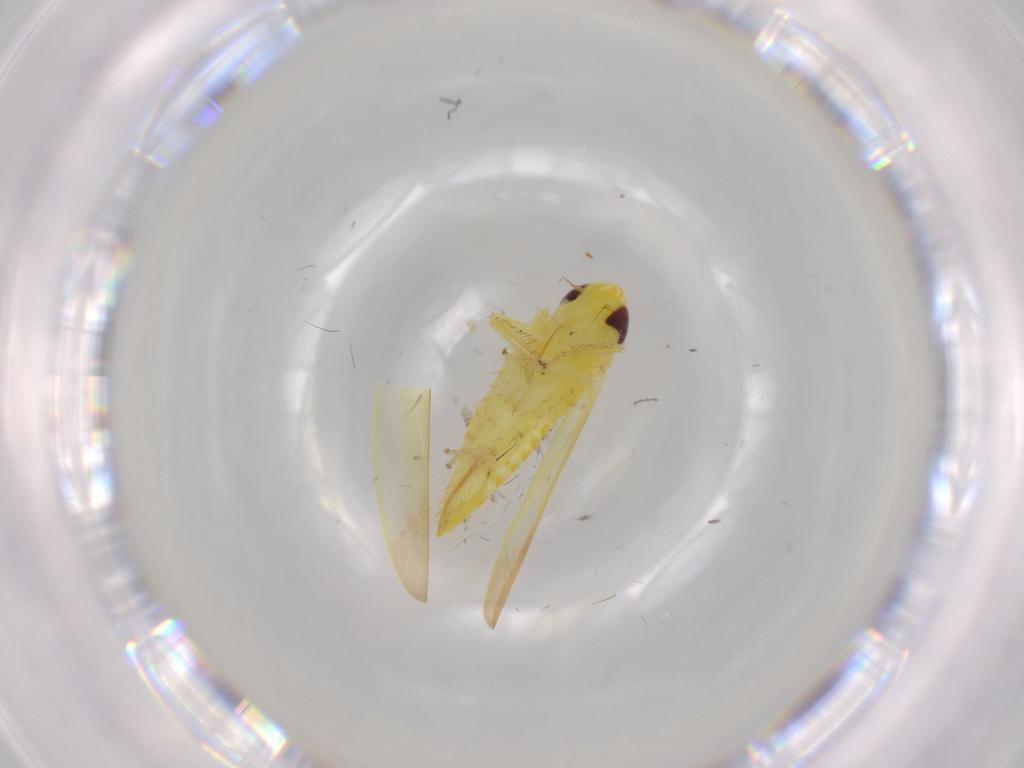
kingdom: Animalia
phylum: Arthropoda
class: Insecta
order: Hemiptera
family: Cicadellidae
